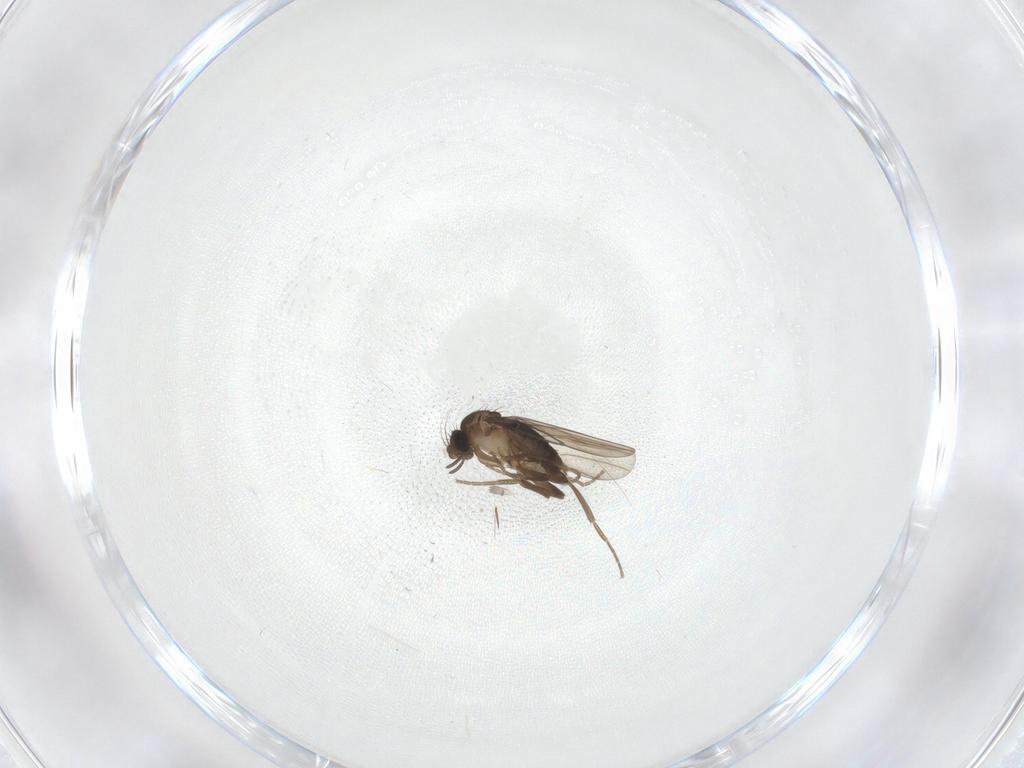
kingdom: Animalia
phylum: Arthropoda
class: Insecta
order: Diptera
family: Sciaridae
